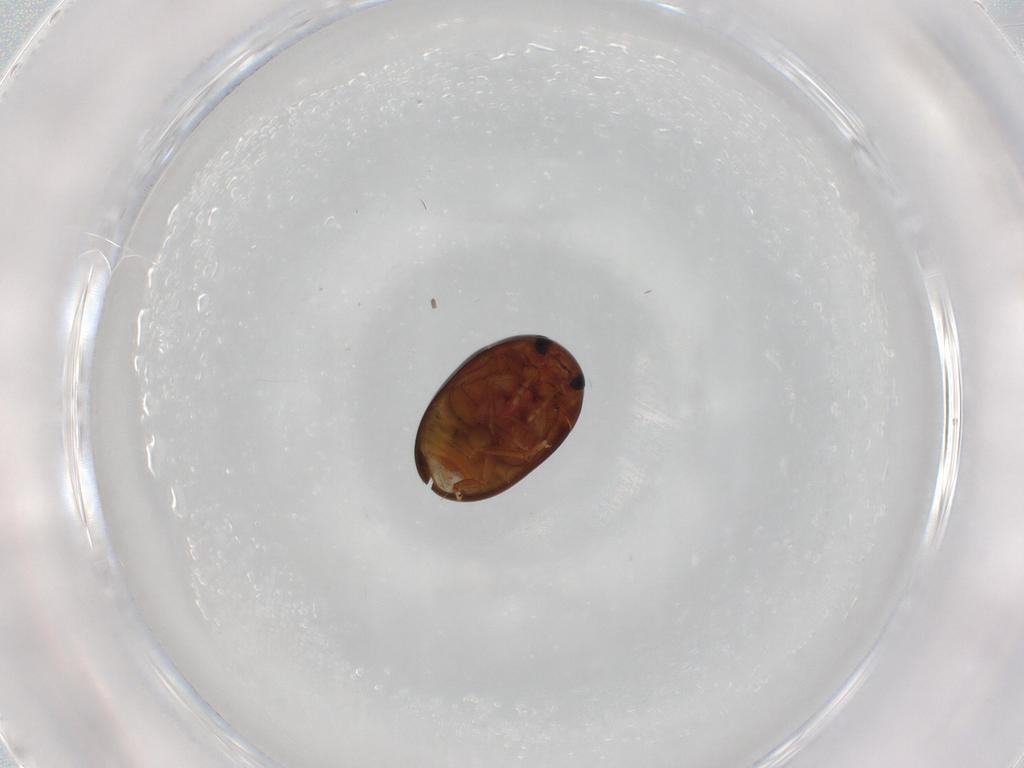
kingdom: Animalia
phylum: Arthropoda
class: Insecta
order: Coleoptera
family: Phalacridae
